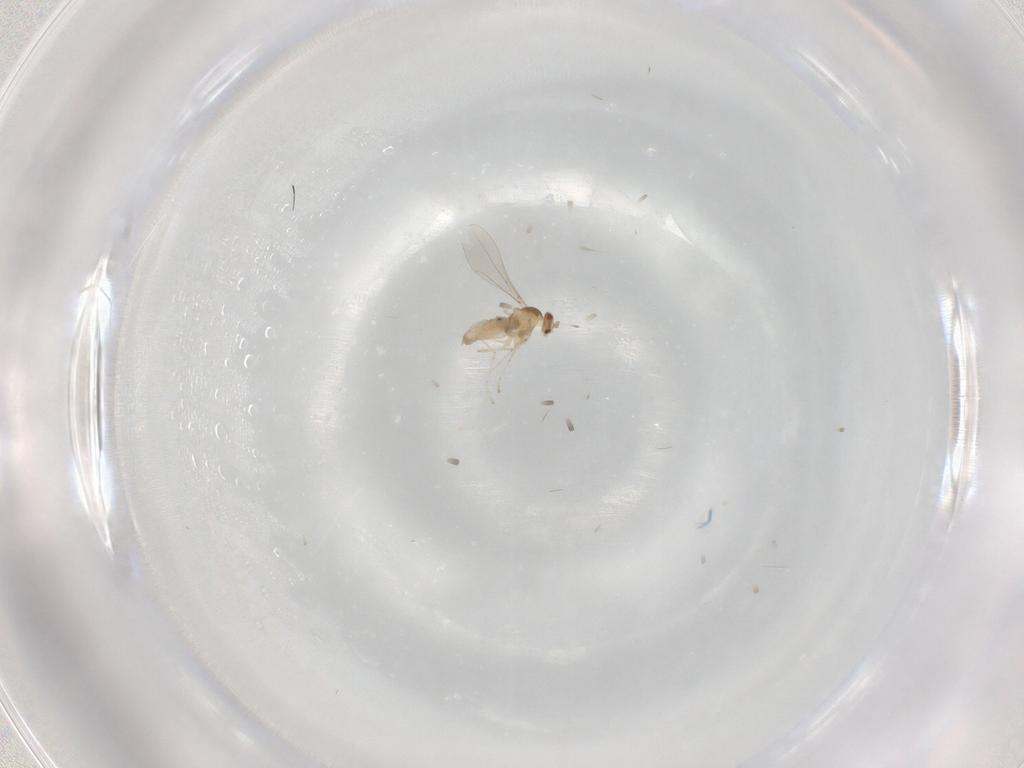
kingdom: Animalia
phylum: Arthropoda
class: Insecta
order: Diptera
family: Cecidomyiidae
